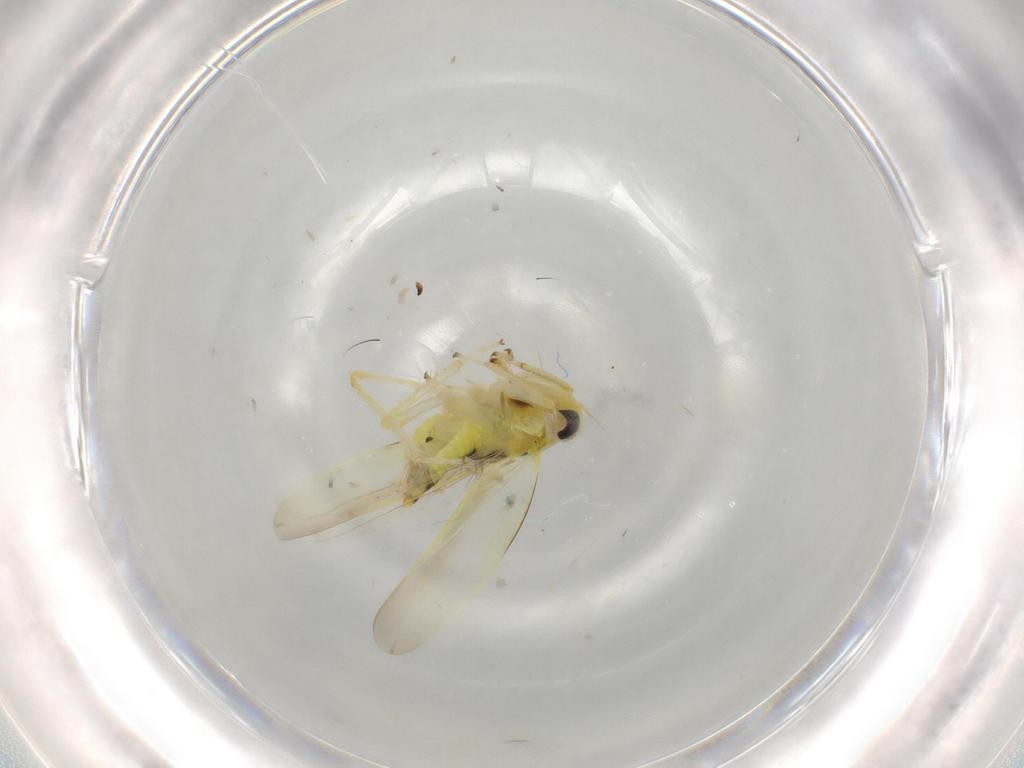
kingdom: Animalia
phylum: Arthropoda
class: Insecta
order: Hemiptera
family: Cicadellidae
